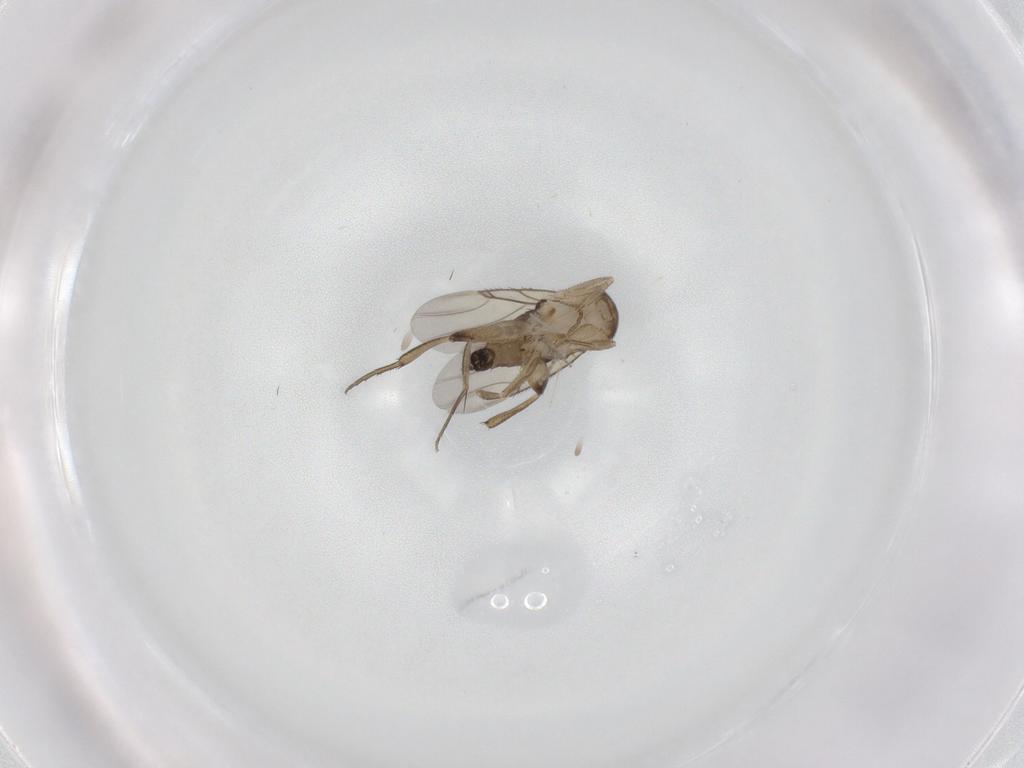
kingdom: Animalia
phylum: Arthropoda
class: Insecta
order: Diptera
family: Phoridae
